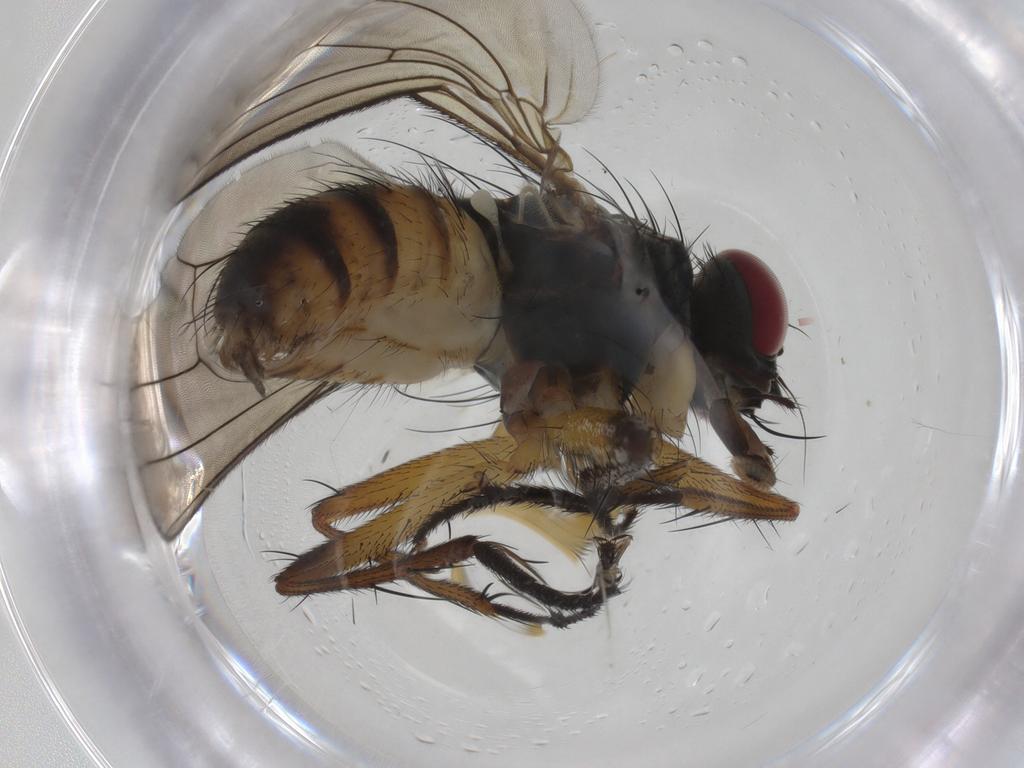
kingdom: Animalia
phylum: Arthropoda
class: Insecta
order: Diptera
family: Muscidae
